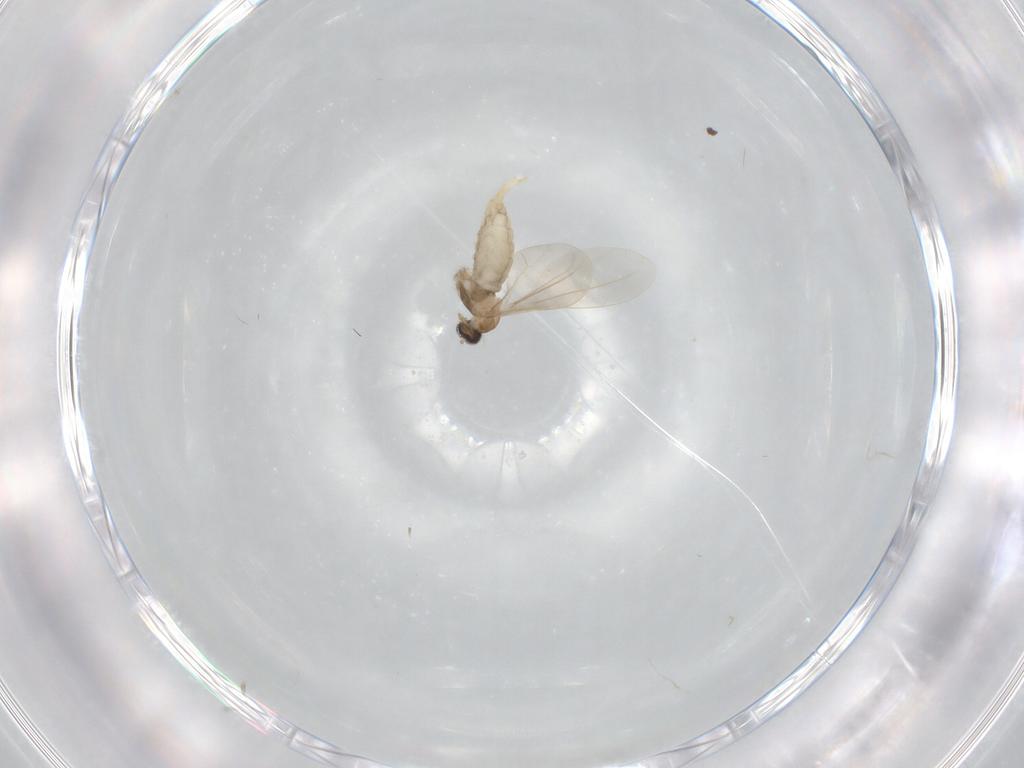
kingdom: Animalia
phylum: Arthropoda
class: Insecta
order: Diptera
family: Cecidomyiidae
